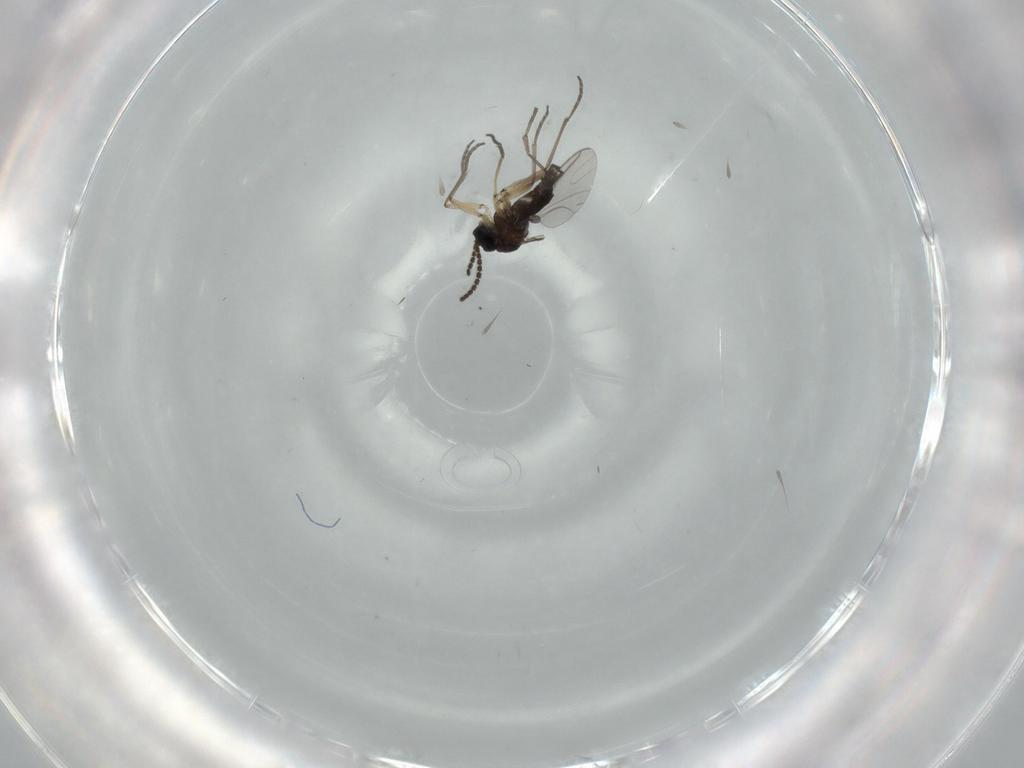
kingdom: Animalia
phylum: Arthropoda
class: Insecta
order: Diptera
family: Sciaridae
